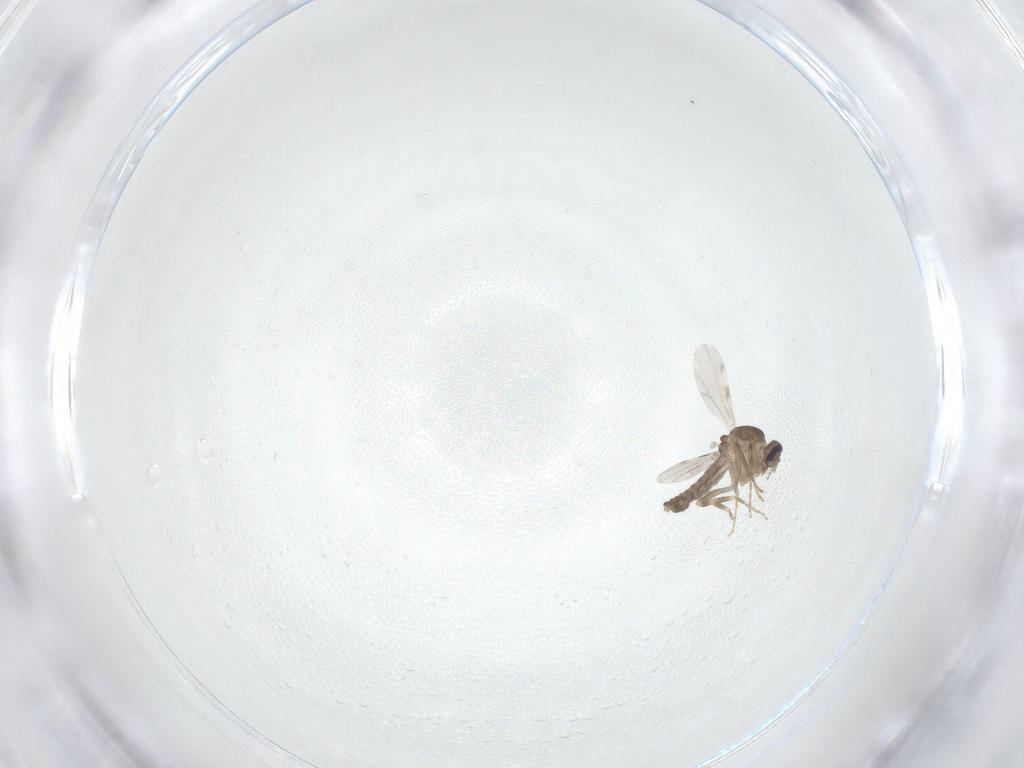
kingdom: Animalia
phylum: Arthropoda
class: Insecta
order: Diptera
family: Ceratopogonidae
